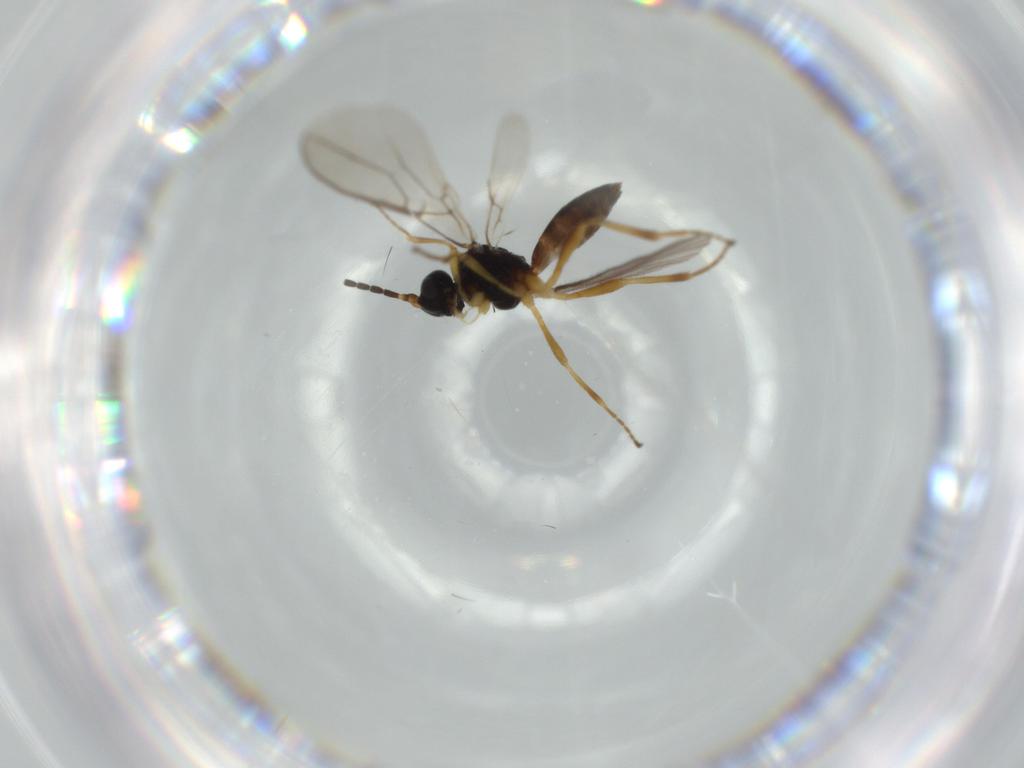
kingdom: Animalia
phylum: Arthropoda
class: Insecta
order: Hymenoptera
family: Braconidae
